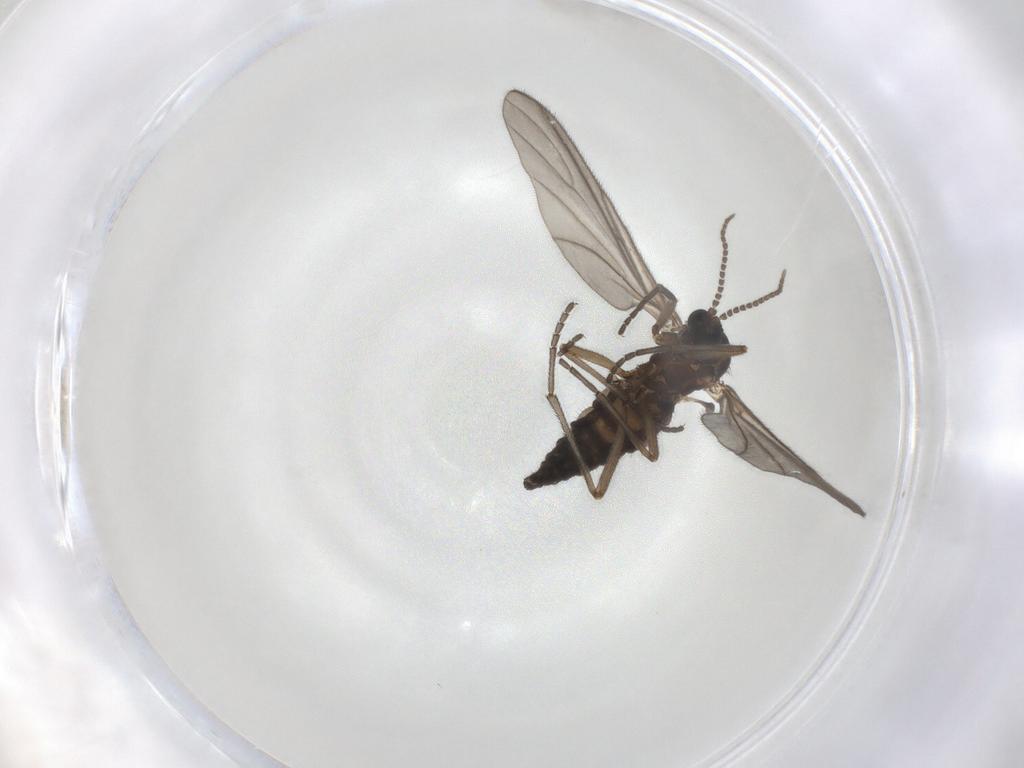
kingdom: Animalia
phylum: Arthropoda
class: Insecta
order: Diptera
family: Sciaridae
